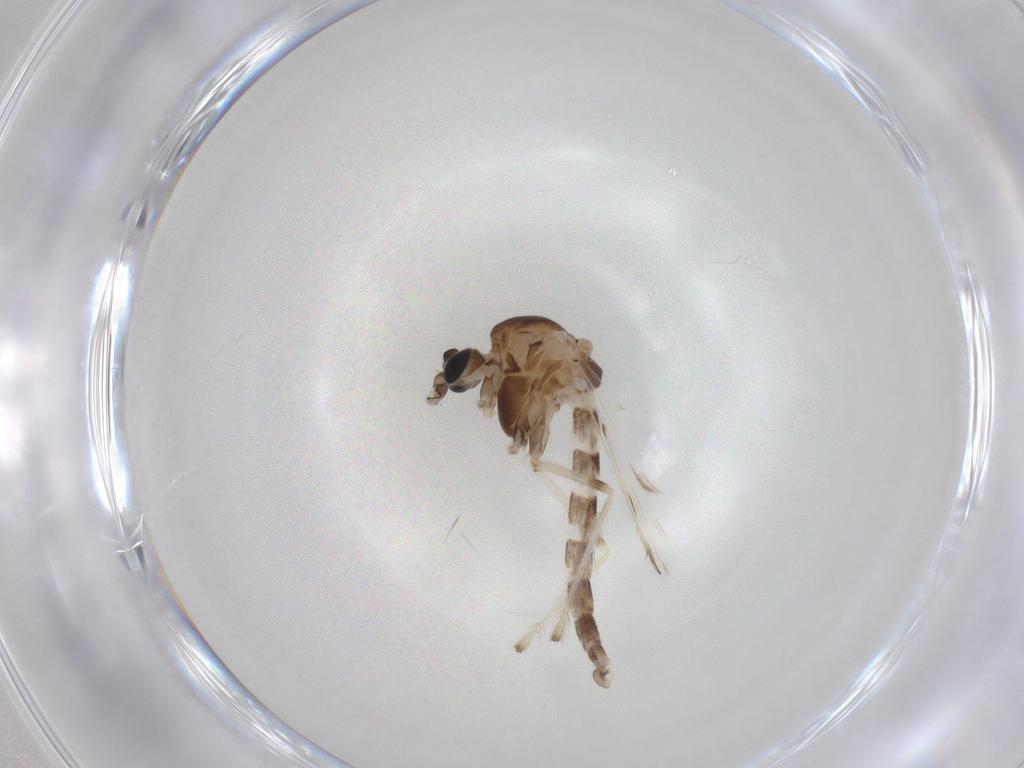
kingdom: Animalia
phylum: Arthropoda
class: Insecta
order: Diptera
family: Chironomidae
